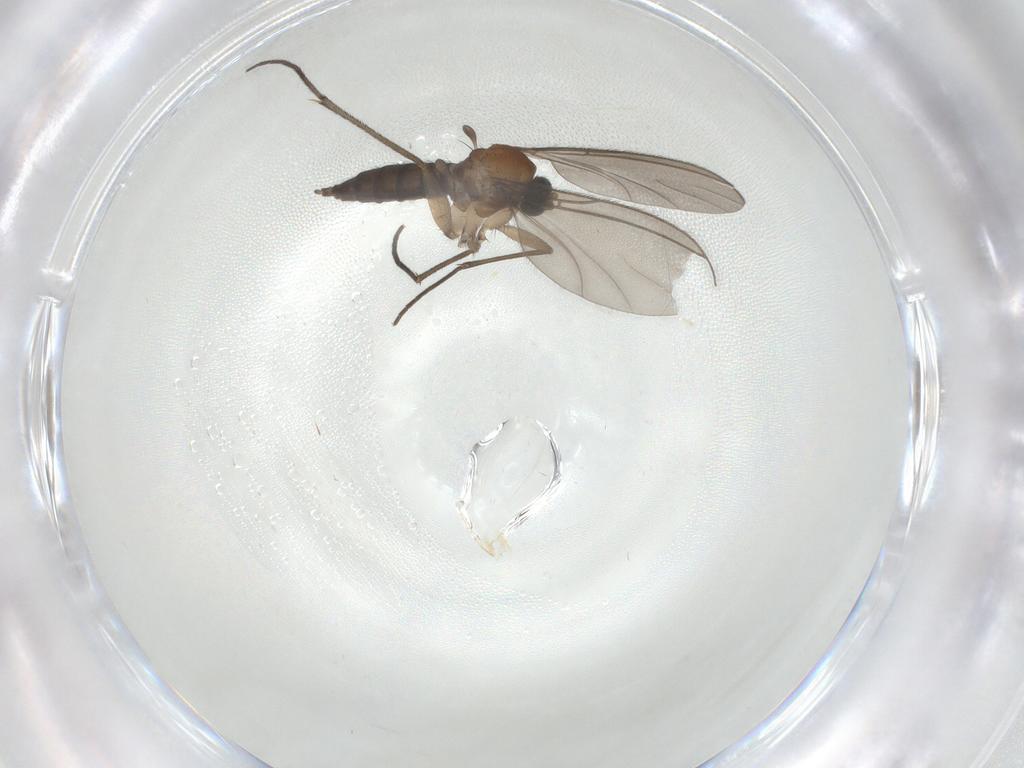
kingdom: Animalia
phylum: Arthropoda
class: Insecta
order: Diptera
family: Sciaridae
